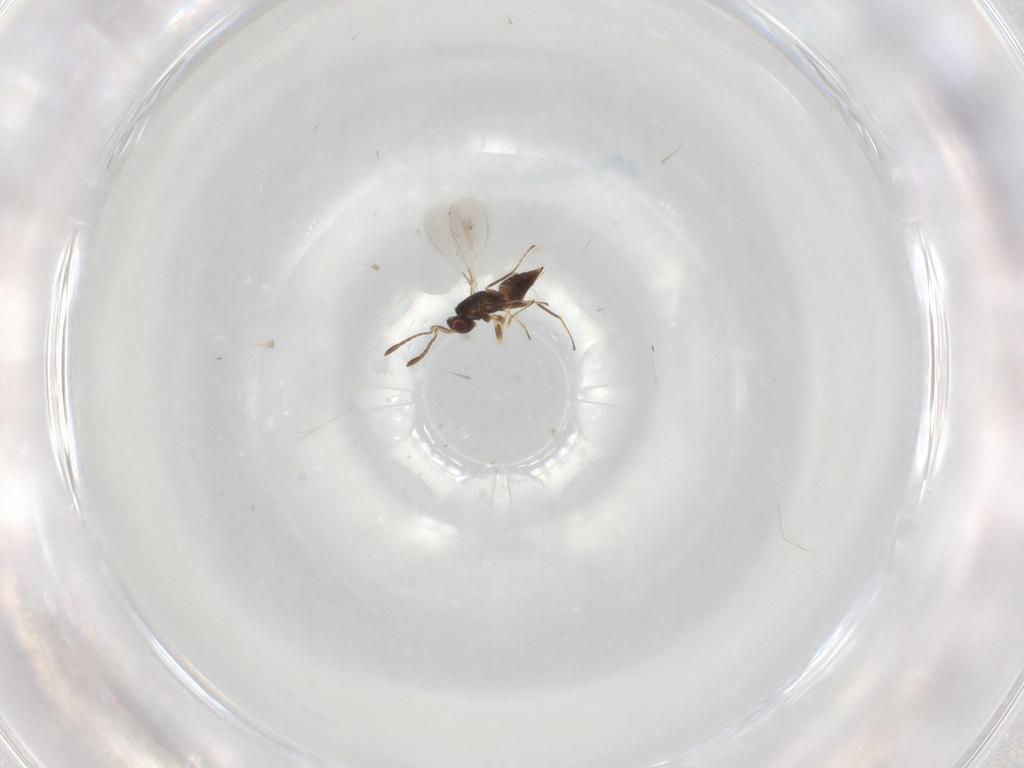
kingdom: Animalia
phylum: Arthropoda
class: Insecta
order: Hymenoptera
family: Mymaridae
